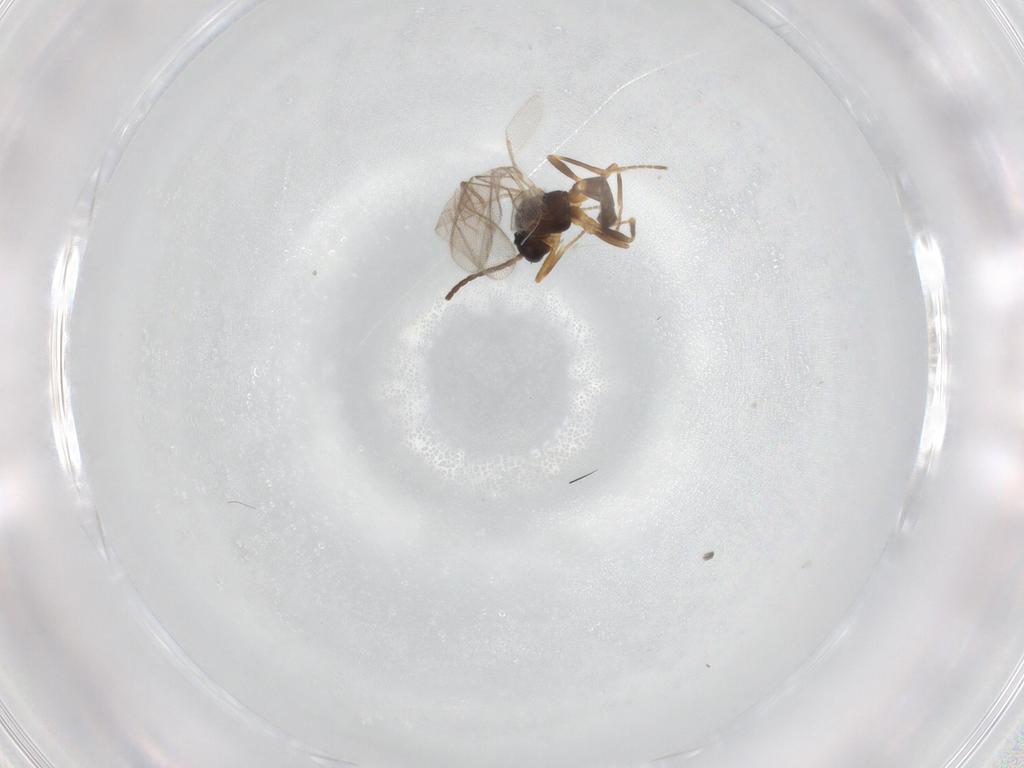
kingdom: Animalia
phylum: Arthropoda
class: Insecta
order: Hymenoptera
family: Braconidae
